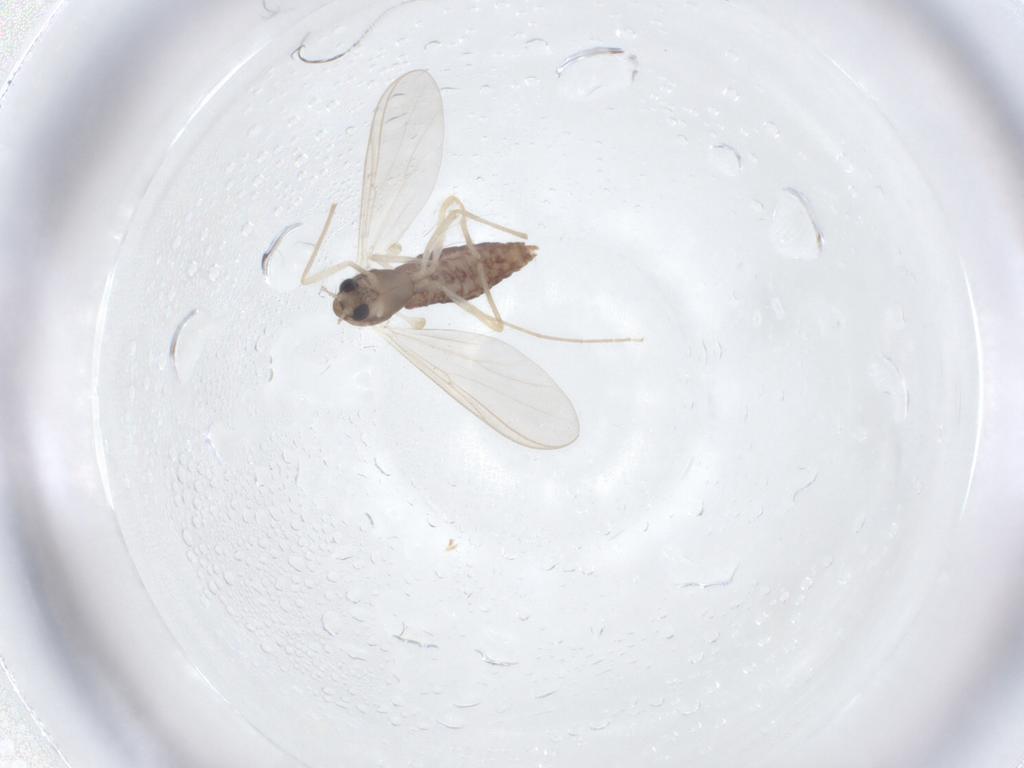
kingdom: Animalia
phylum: Arthropoda
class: Insecta
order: Diptera
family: Chironomidae
